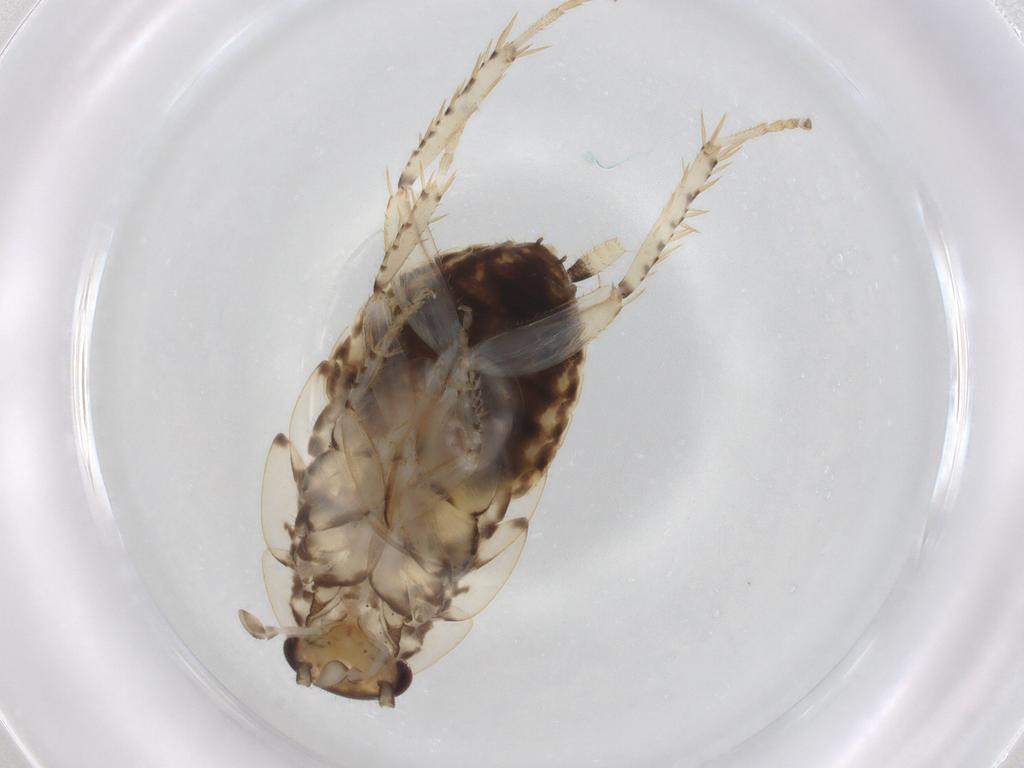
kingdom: Animalia
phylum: Arthropoda
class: Insecta
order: Blattodea
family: Ectobiidae
